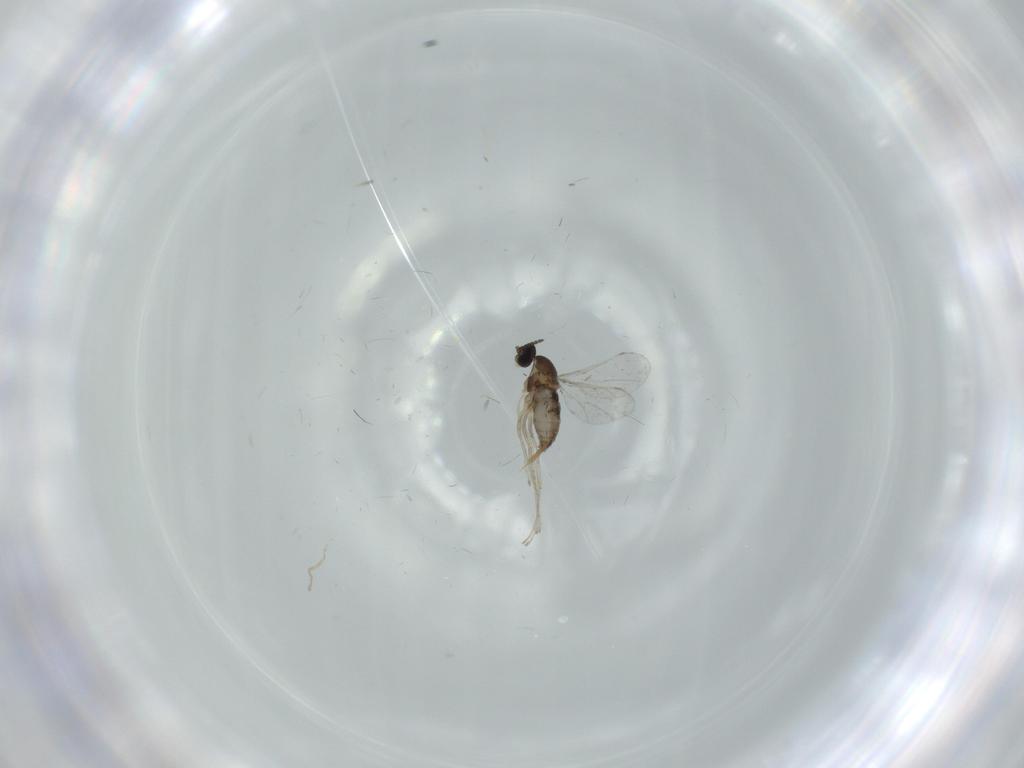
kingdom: Animalia
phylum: Arthropoda
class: Insecta
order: Diptera
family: Cecidomyiidae
